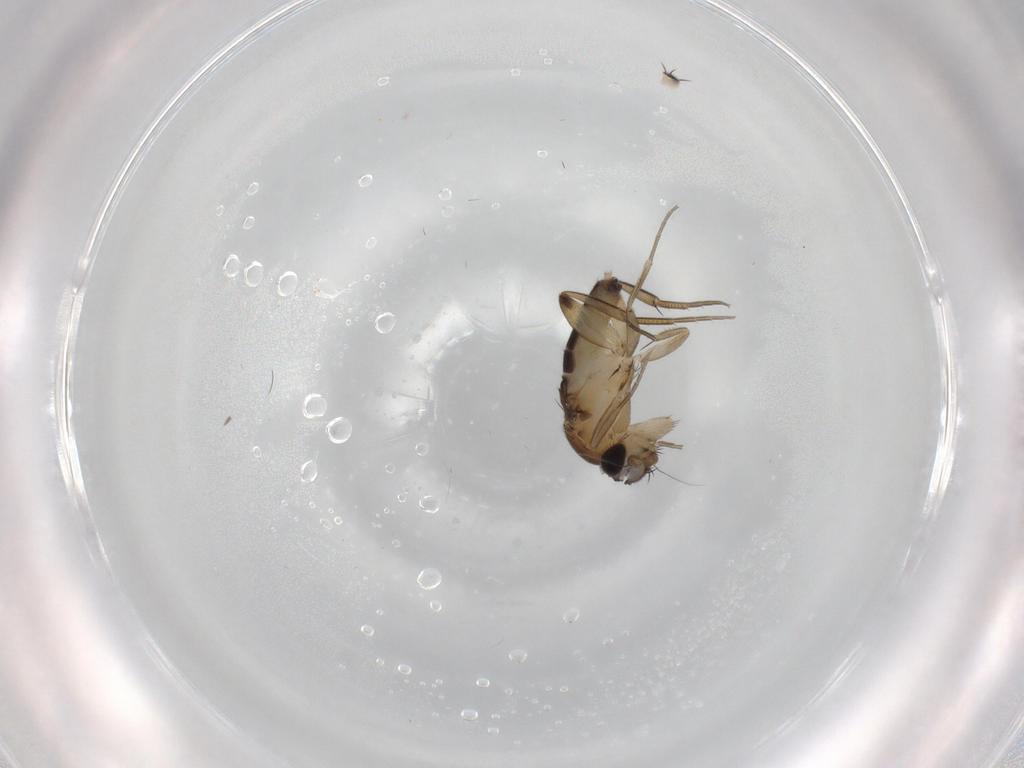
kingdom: Animalia
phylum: Arthropoda
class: Insecta
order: Diptera
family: Phoridae
